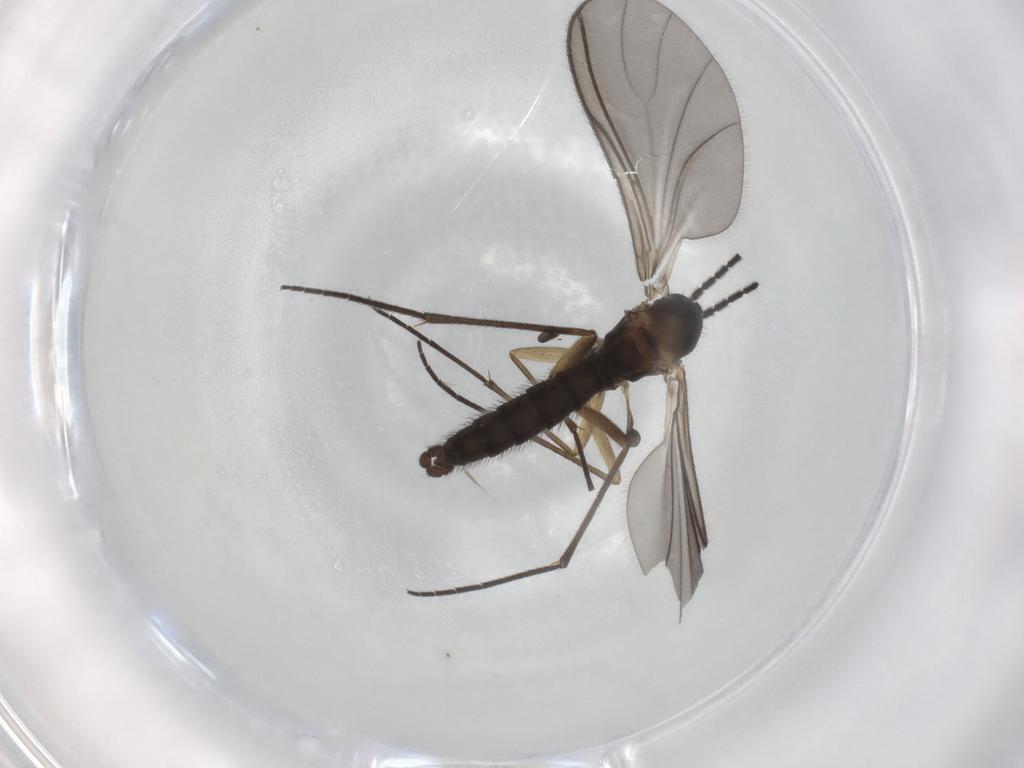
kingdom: Animalia
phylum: Arthropoda
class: Insecta
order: Diptera
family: Sciaridae
